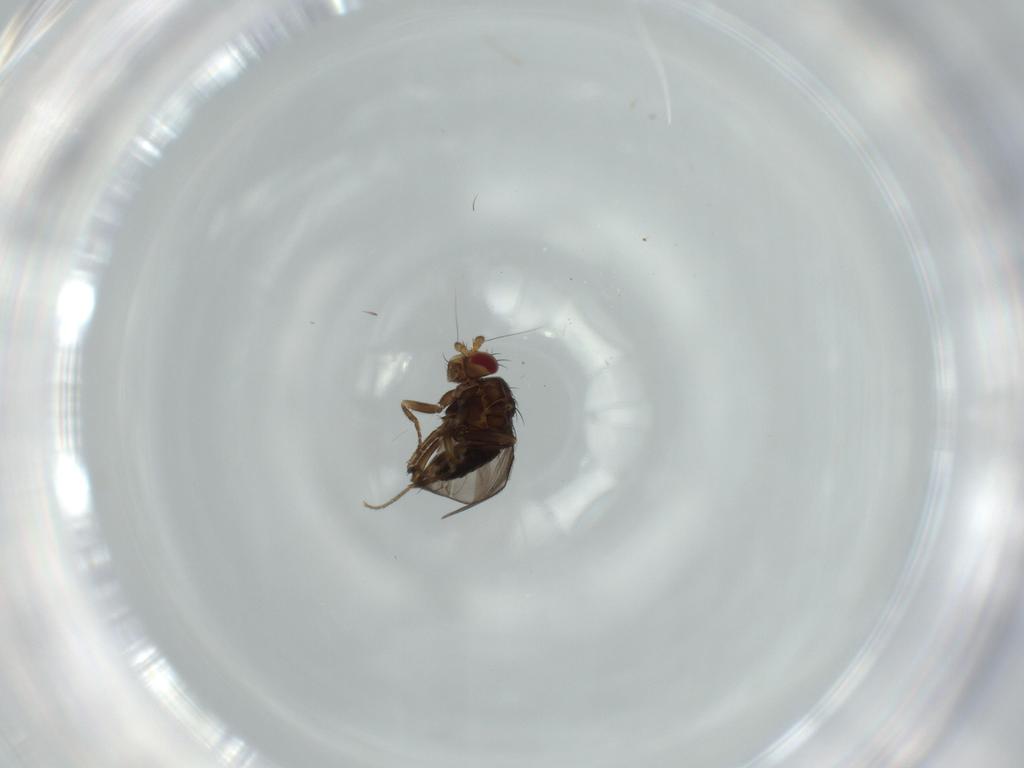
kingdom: Animalia
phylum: Arthropoda
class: Insecta
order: Diptera
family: Sphaeroceridae
